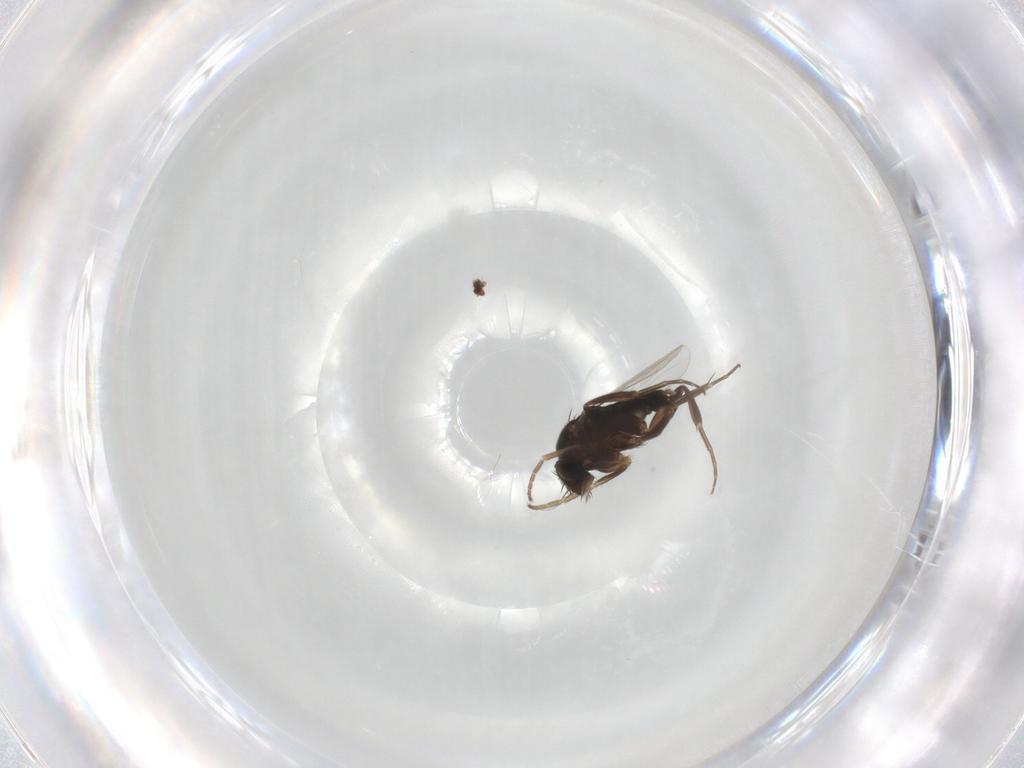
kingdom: Animalia
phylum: Arthropoda
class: Insecta
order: Diptera
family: Phoridae
